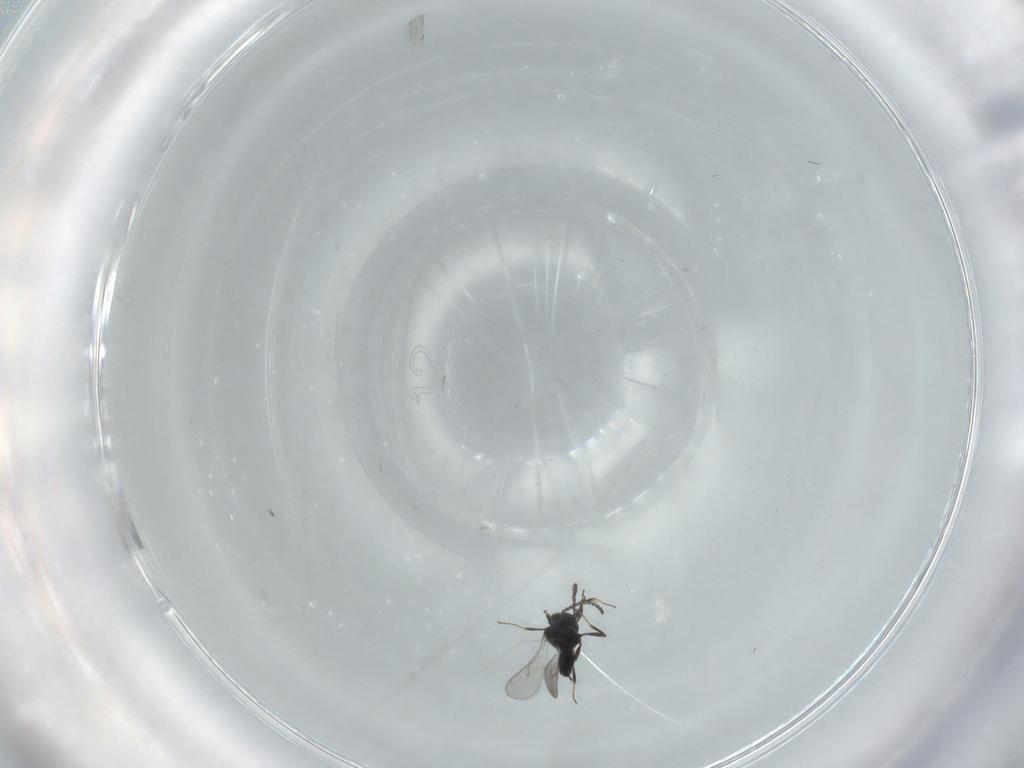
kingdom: Animalia
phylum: Arthropoda
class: Insecta
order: Hymenoptera
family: Scelionidae
